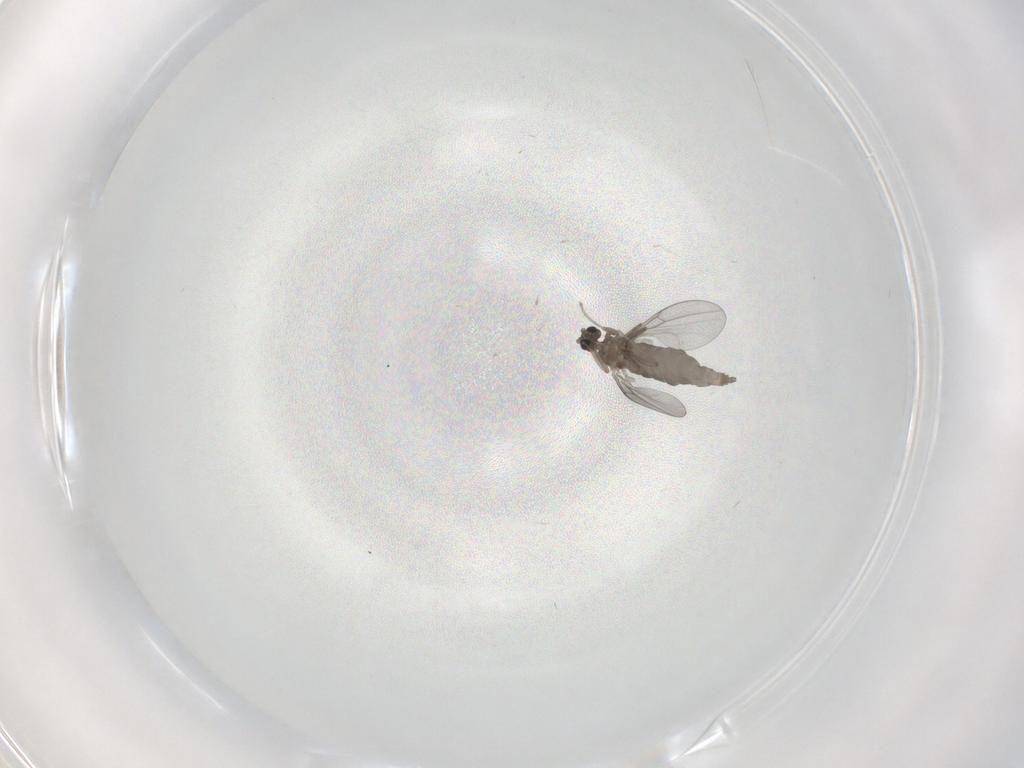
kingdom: Animalia
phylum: Arthropoda
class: Insecta
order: Diptera
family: Cecidomyiidae
